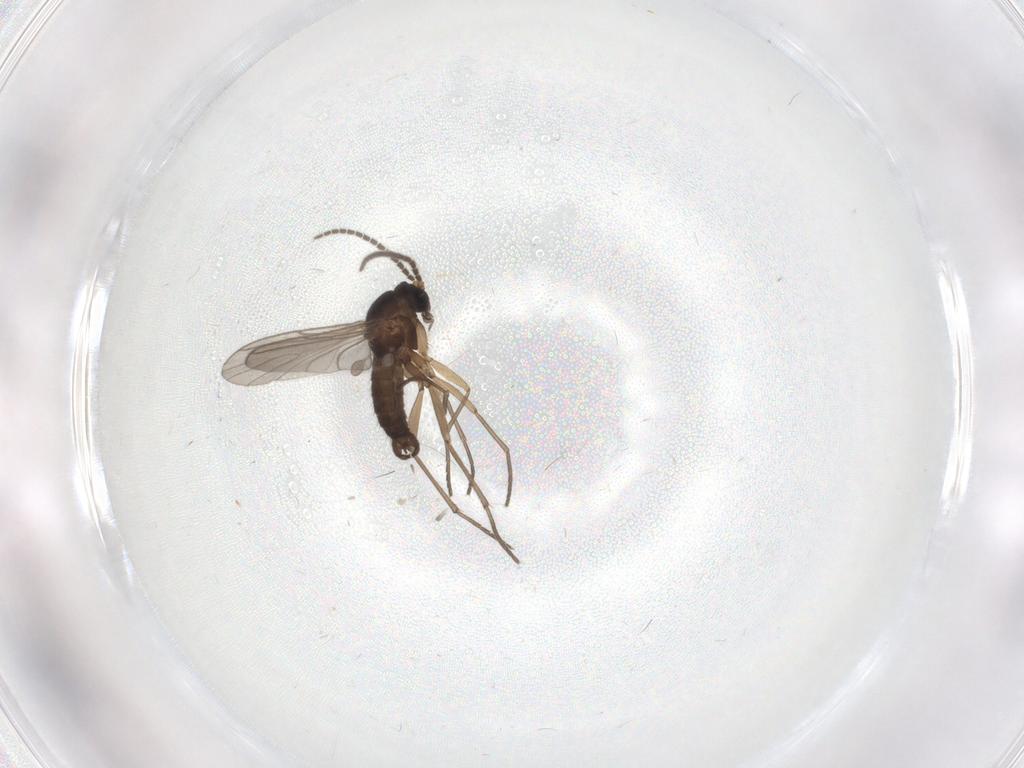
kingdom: Animalia
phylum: Arthropoda
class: Insecta
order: Diptera
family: Sciaridae
